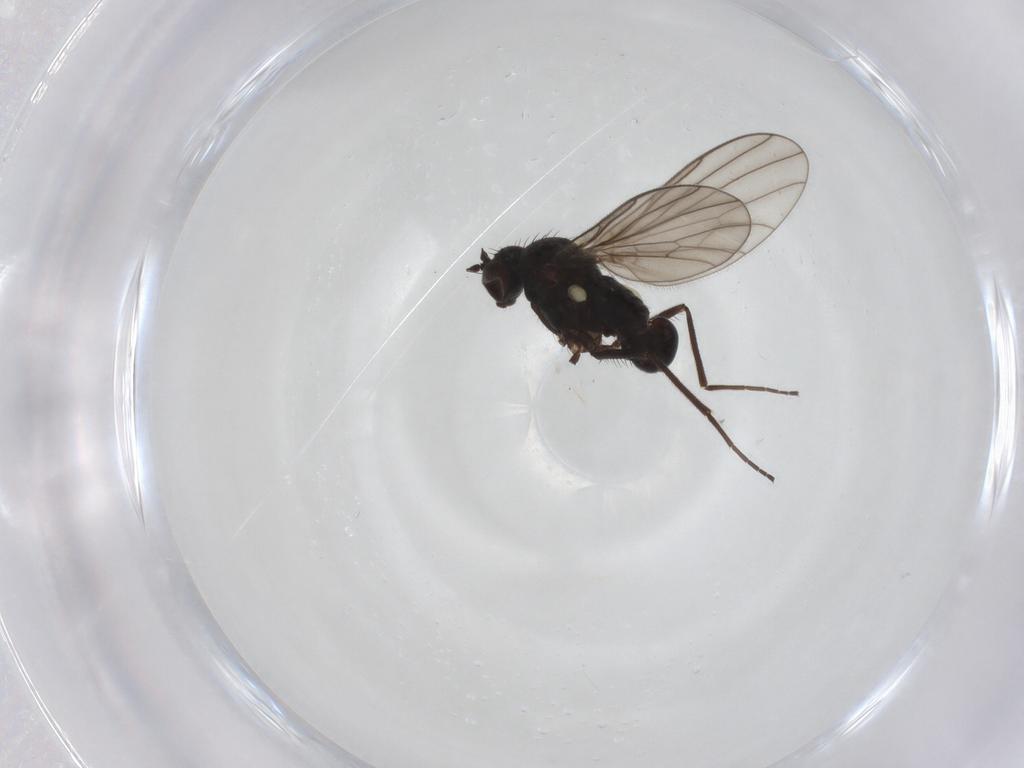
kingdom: Animalia
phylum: Arthropoda
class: Insecta
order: Diptera
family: Dolichopodidae
